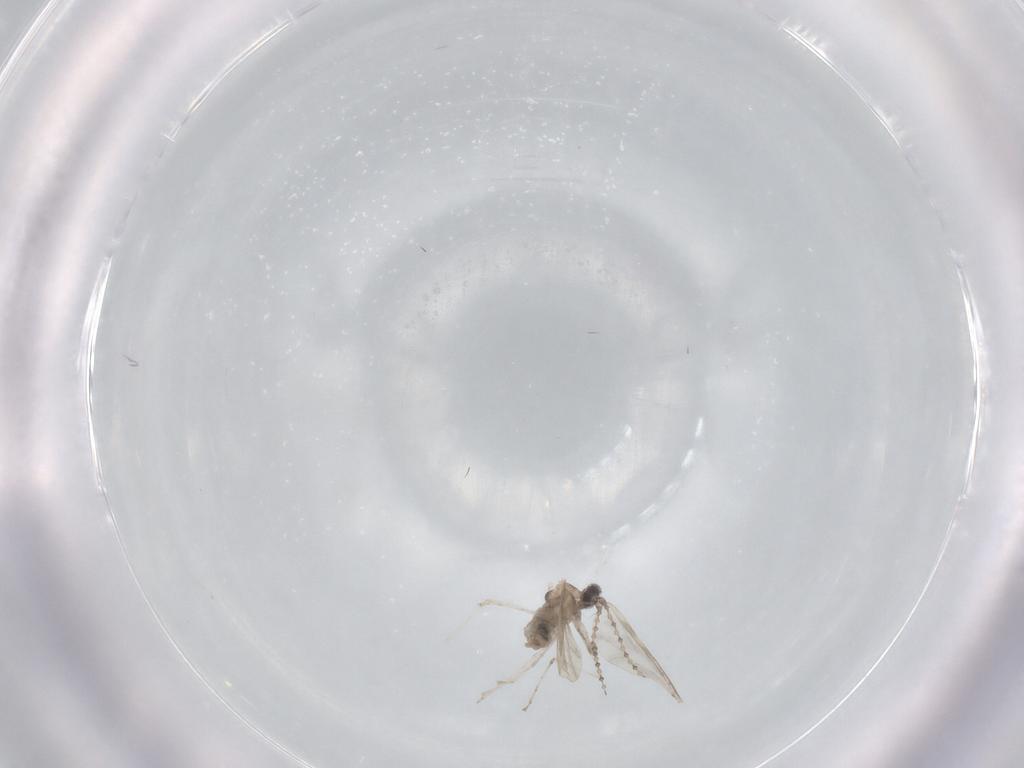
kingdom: Animalia
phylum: Arthropoda
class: Insecta
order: Diptera
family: Cecidomyiidae
